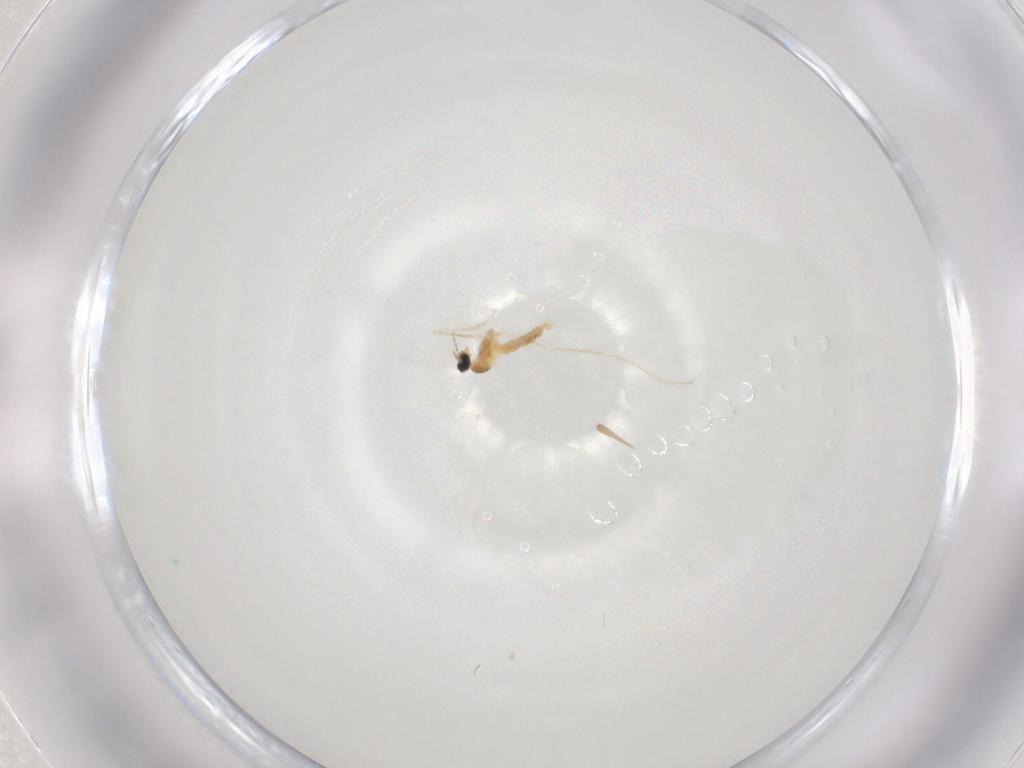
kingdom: Animalia
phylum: Arthropoda
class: Insecta
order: Diptera
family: Cecidomyiidae
